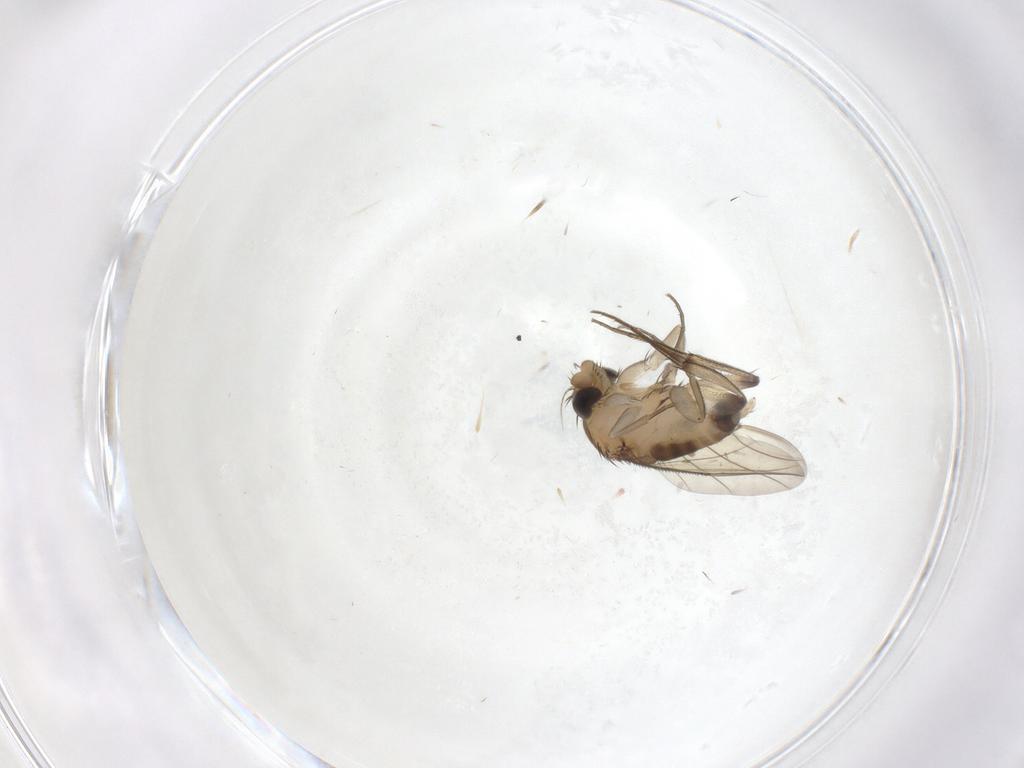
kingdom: Animalia
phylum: Arthropoda
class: Insecta
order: Diptera
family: Phoridae
